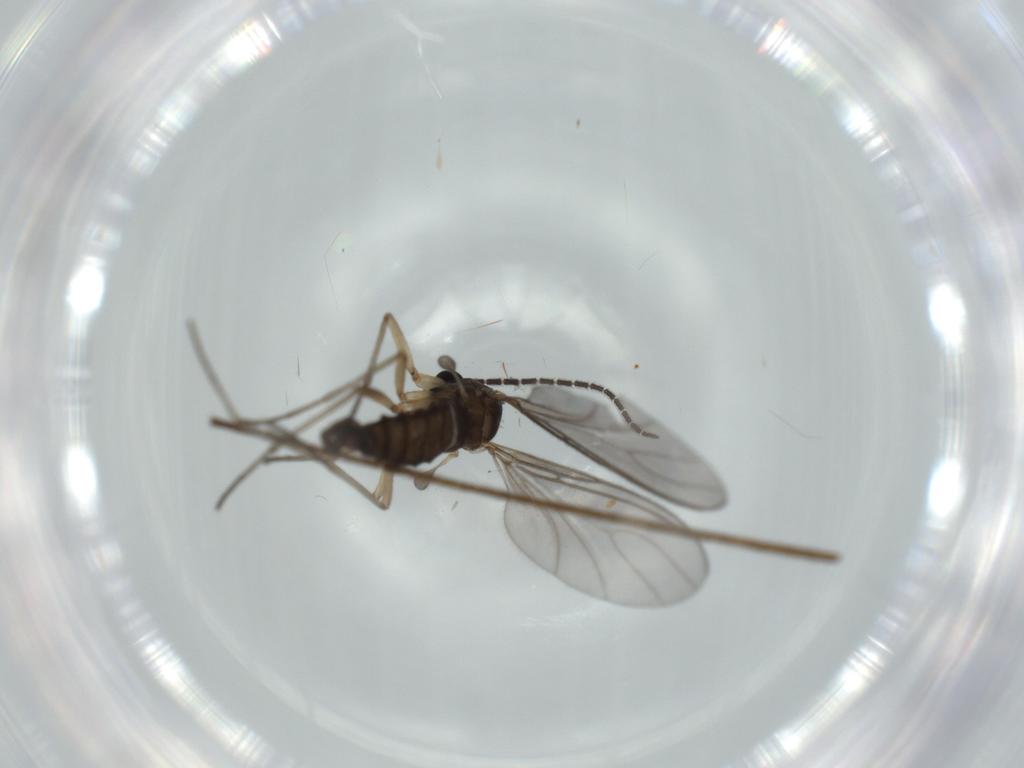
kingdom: Animalia
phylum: Arthropoda
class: Insecta
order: Diptera
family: Sciaridae
